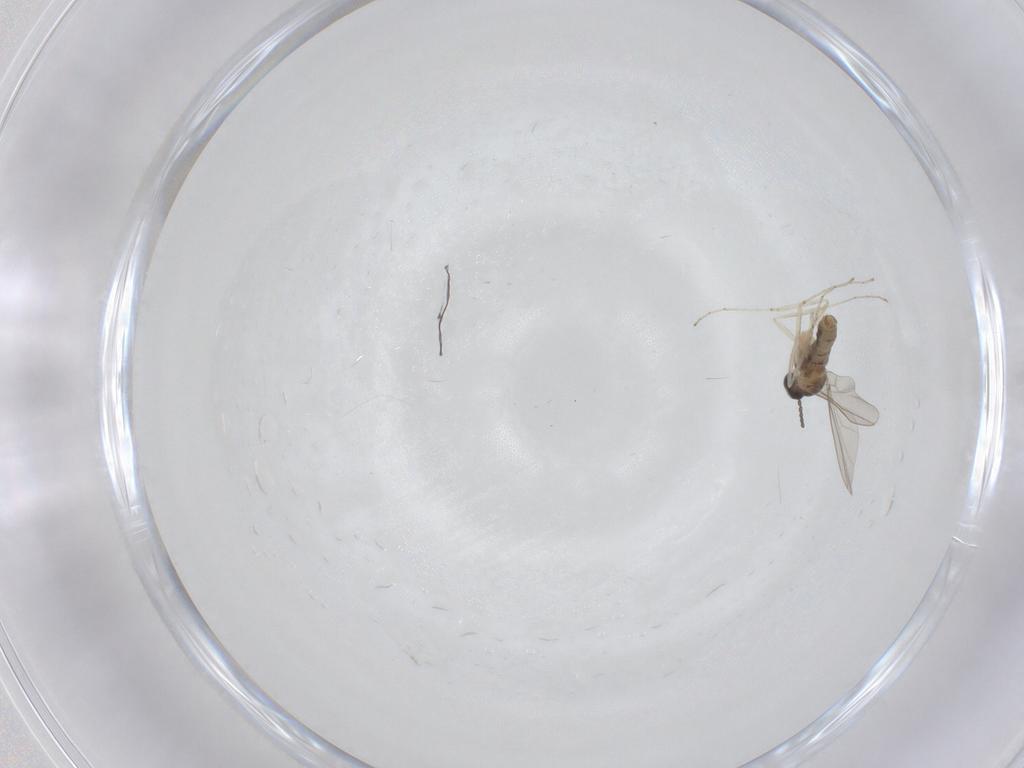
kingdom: Animalia
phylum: Arthropoda
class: Insecta
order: Diptera
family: Cecidomyiidae
